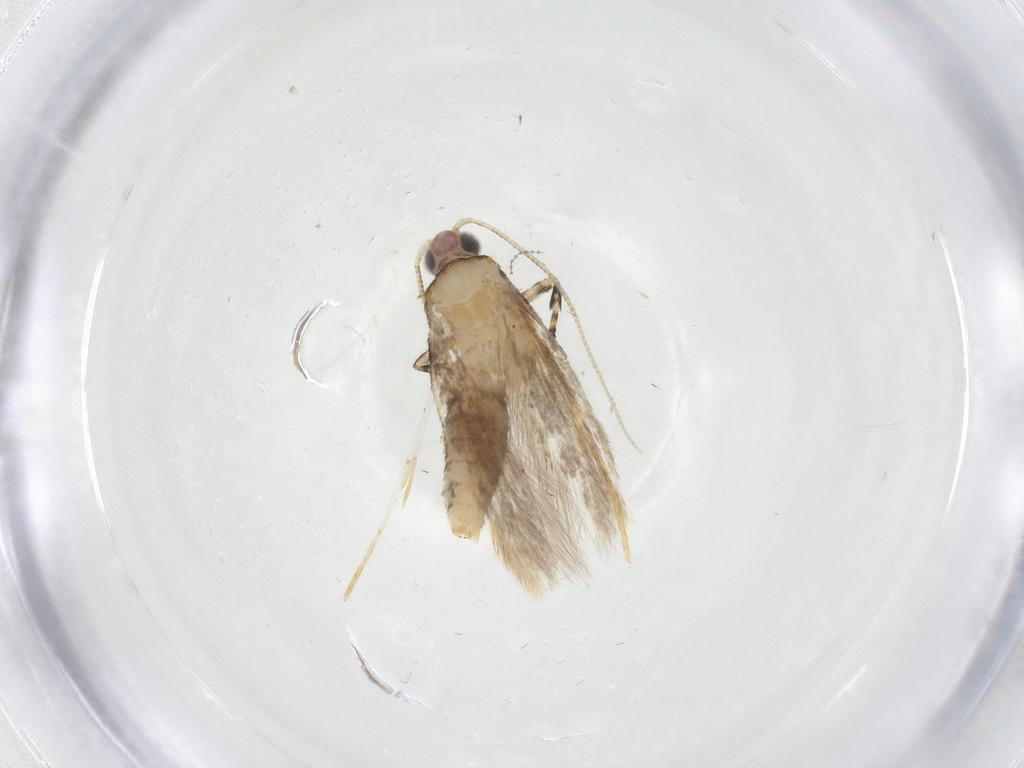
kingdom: Animalia
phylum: Arthropoda
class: Insecta
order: Lepidoptera
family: Tineidae
